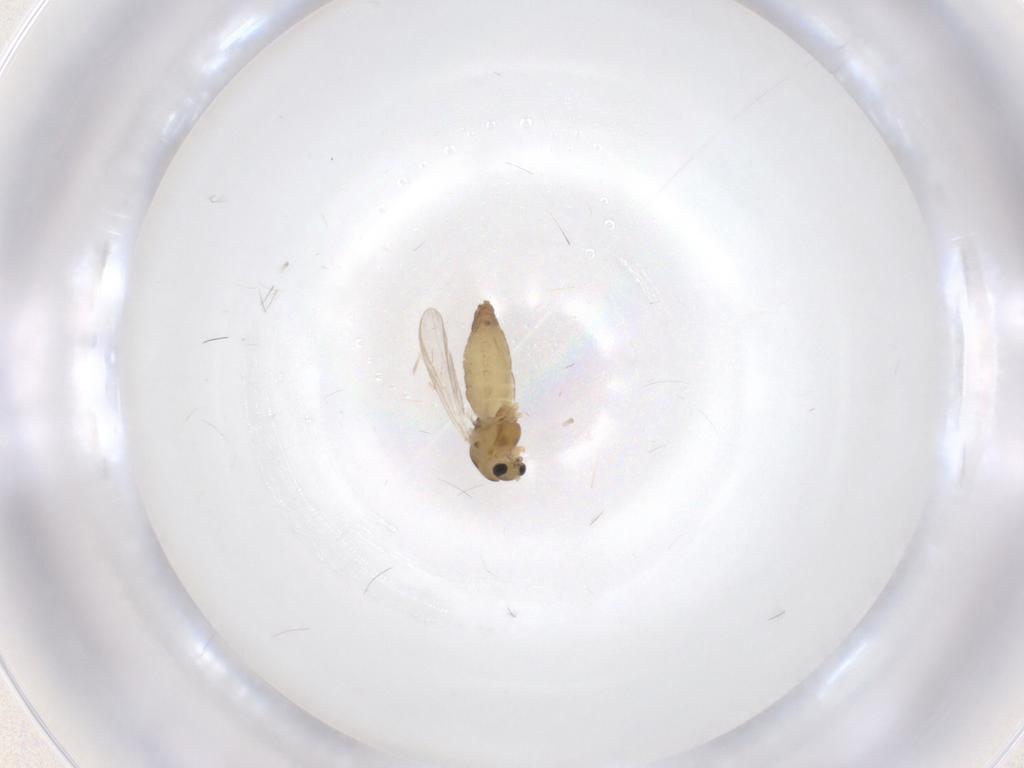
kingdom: Animalia
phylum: Arthropoda
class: Insecta
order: Diptera
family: Chironomidae
